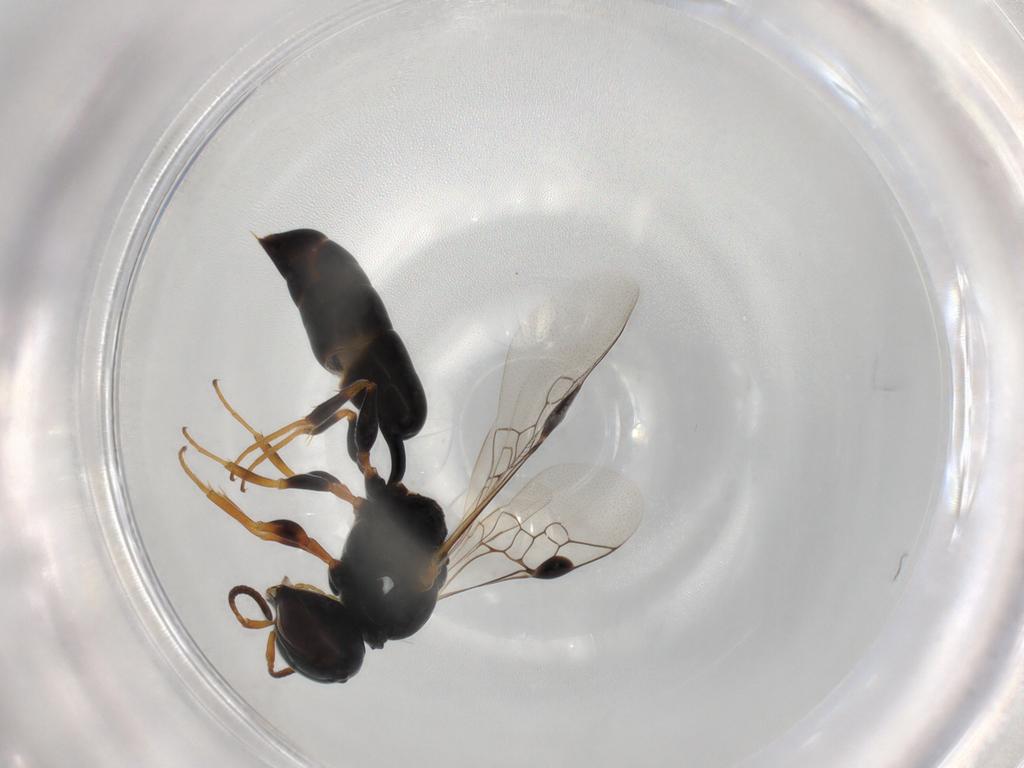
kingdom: Animalia
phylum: Arthropoda
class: Insecta
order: Hymenoptera
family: Pemphredonidae
